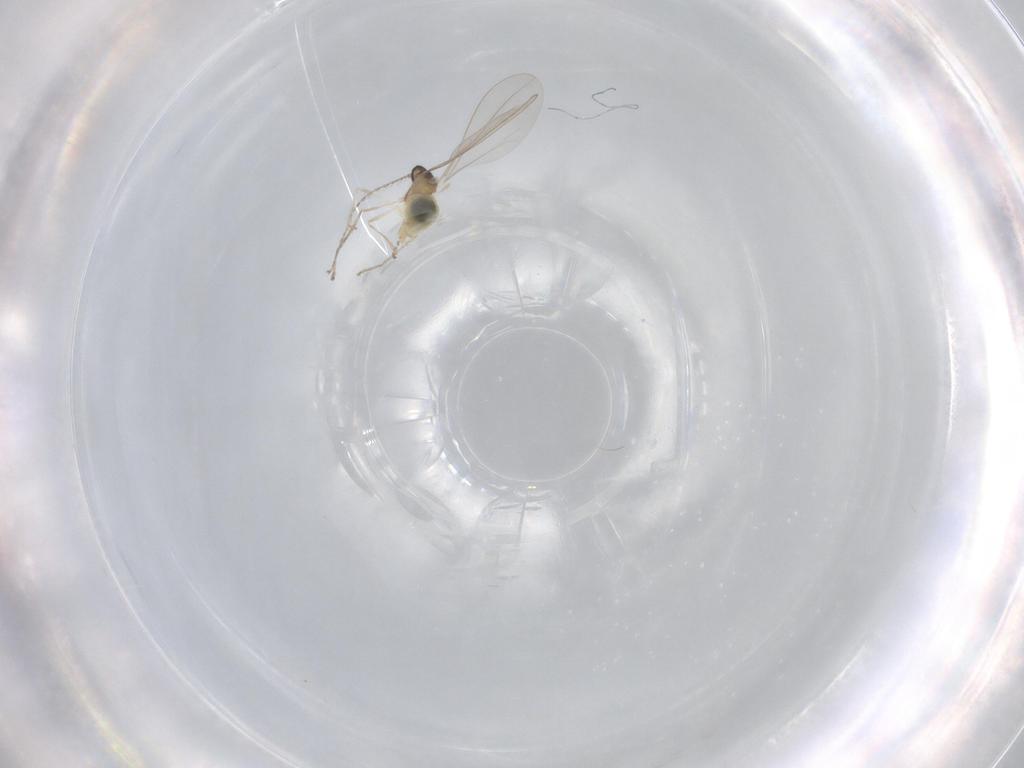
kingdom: Animalia
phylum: Arthropoda
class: Insecta
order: Diptera
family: Cecidomyiidae
